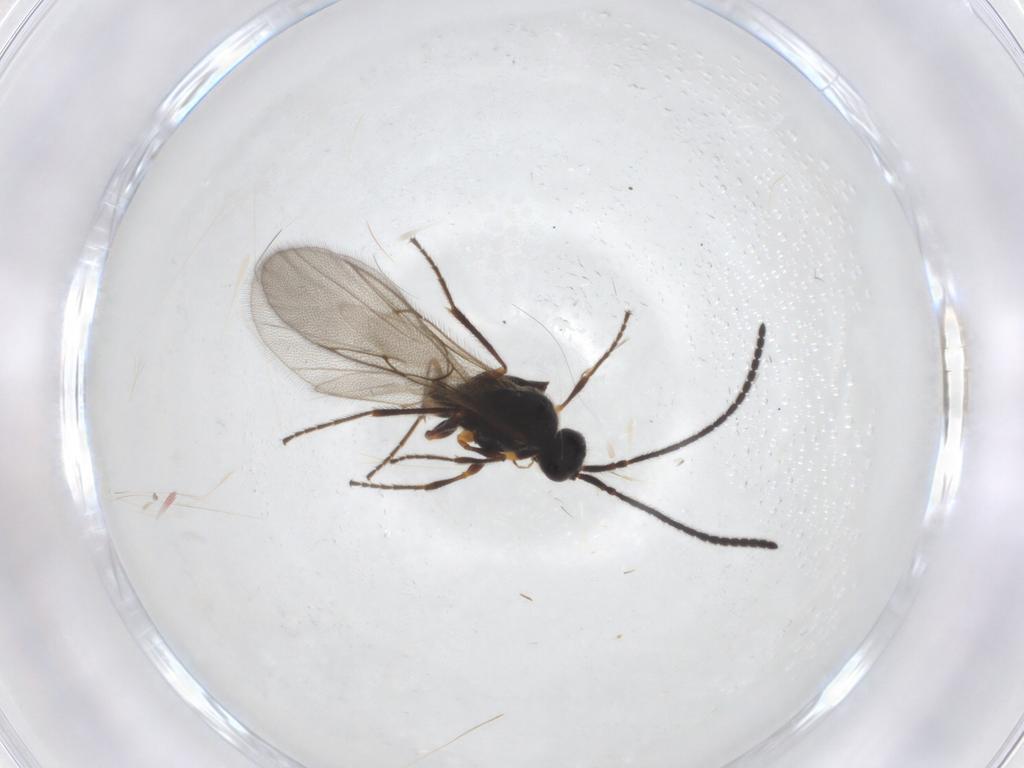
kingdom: Animalia
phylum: Arthropoda
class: Insecta
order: Hymenoptera
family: Diapriidae
